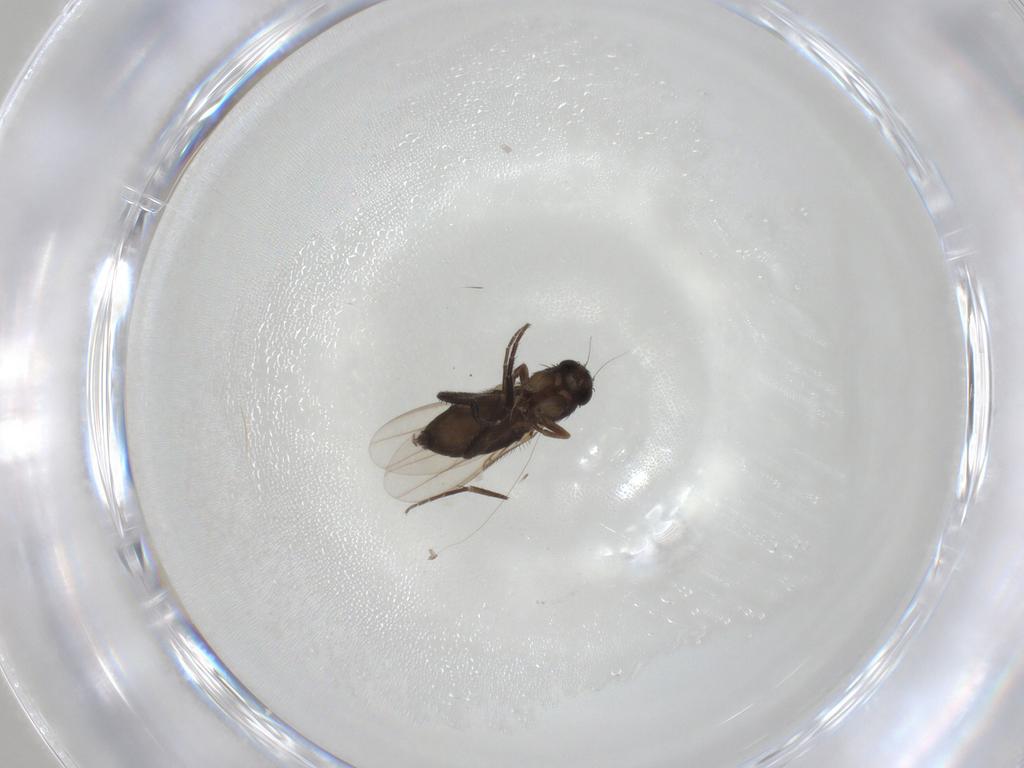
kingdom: Animalia
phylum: Arthropoda
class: Insecta
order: Diptera
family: Phoridae
